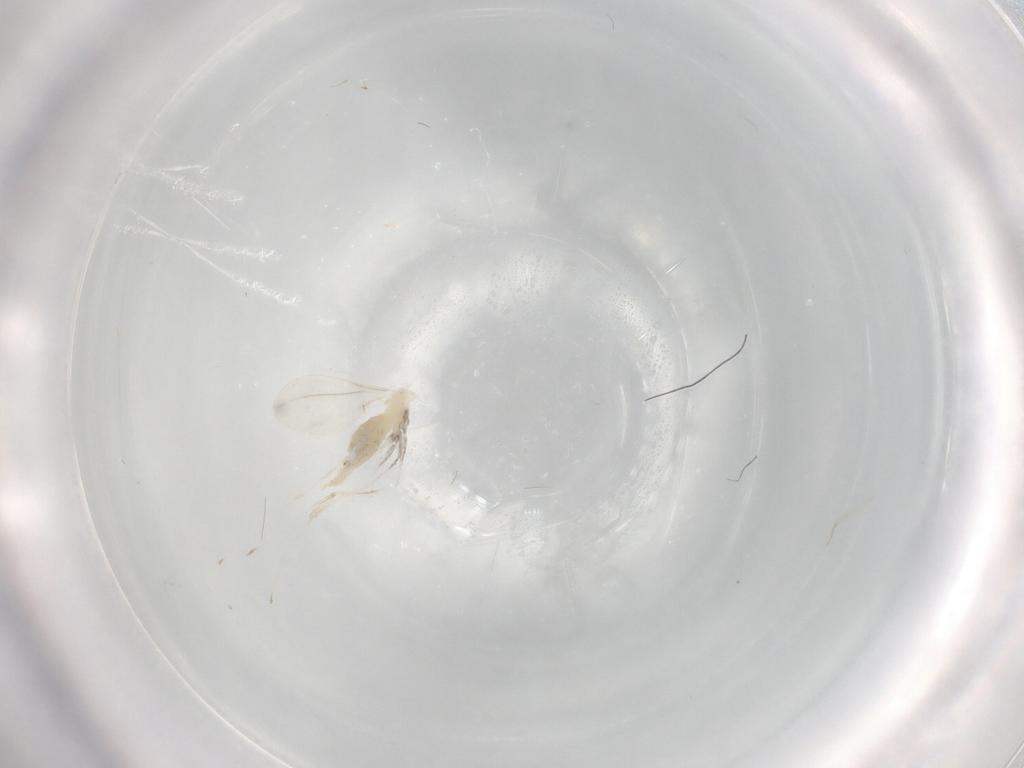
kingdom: Animalia
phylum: Arthropoda
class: Insecta
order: Diptera
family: Cecidomyiidae
